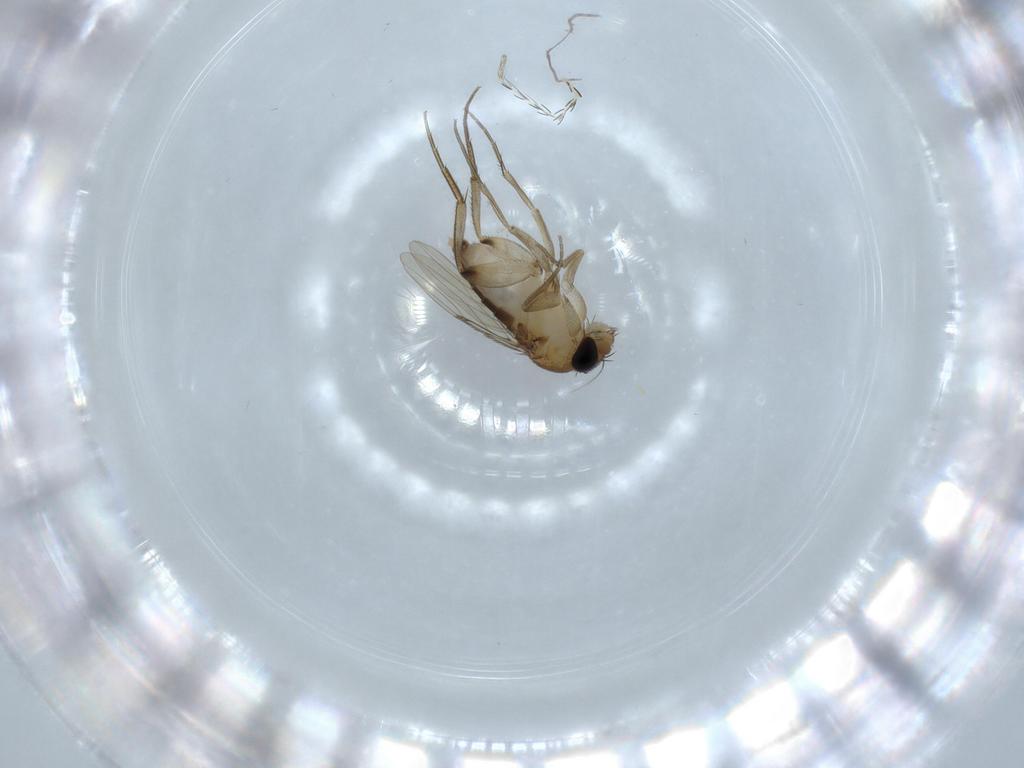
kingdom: Animalia
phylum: Arthropoda
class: Insecta
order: Diptera
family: Phoridae
